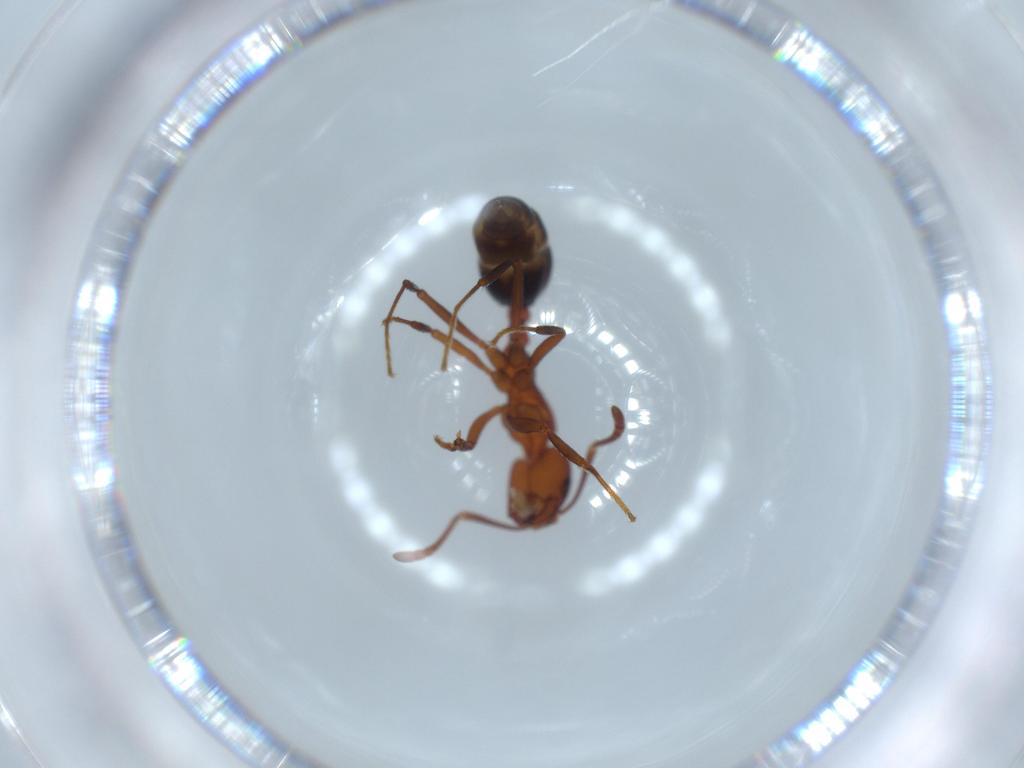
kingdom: Animalia
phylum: Arthropoda
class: Insecta
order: Hymenoptera
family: Formicidae
